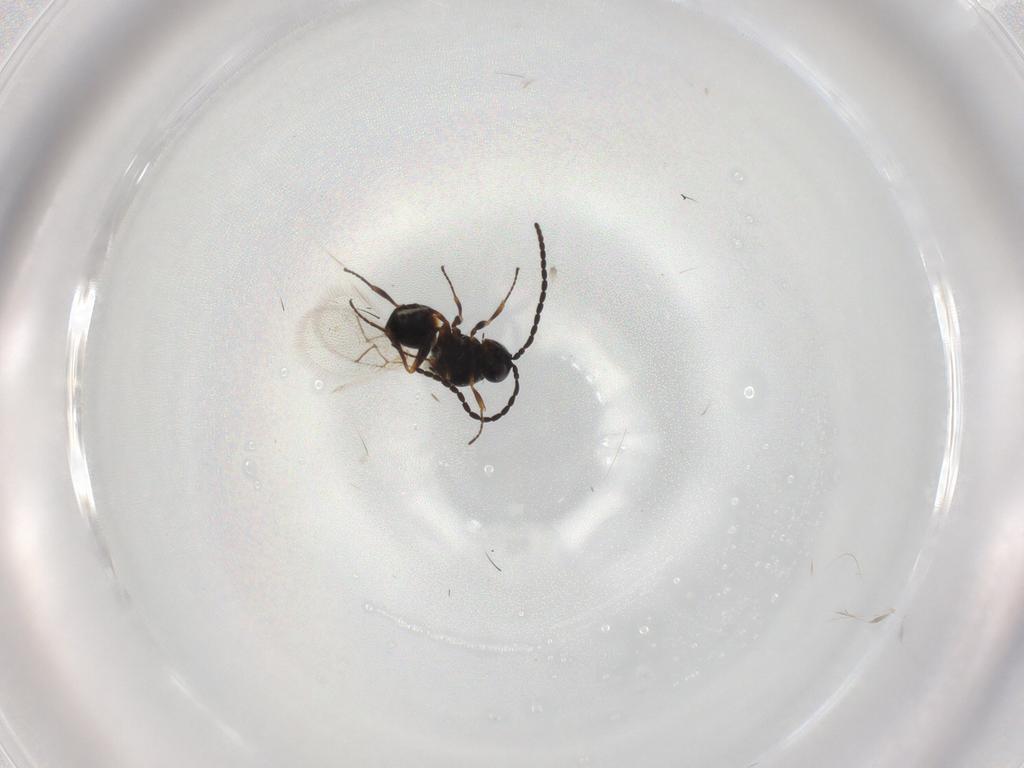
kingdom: Animalia
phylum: Arthropoda
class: Insecta
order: Hymenoptera
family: Figitidae
